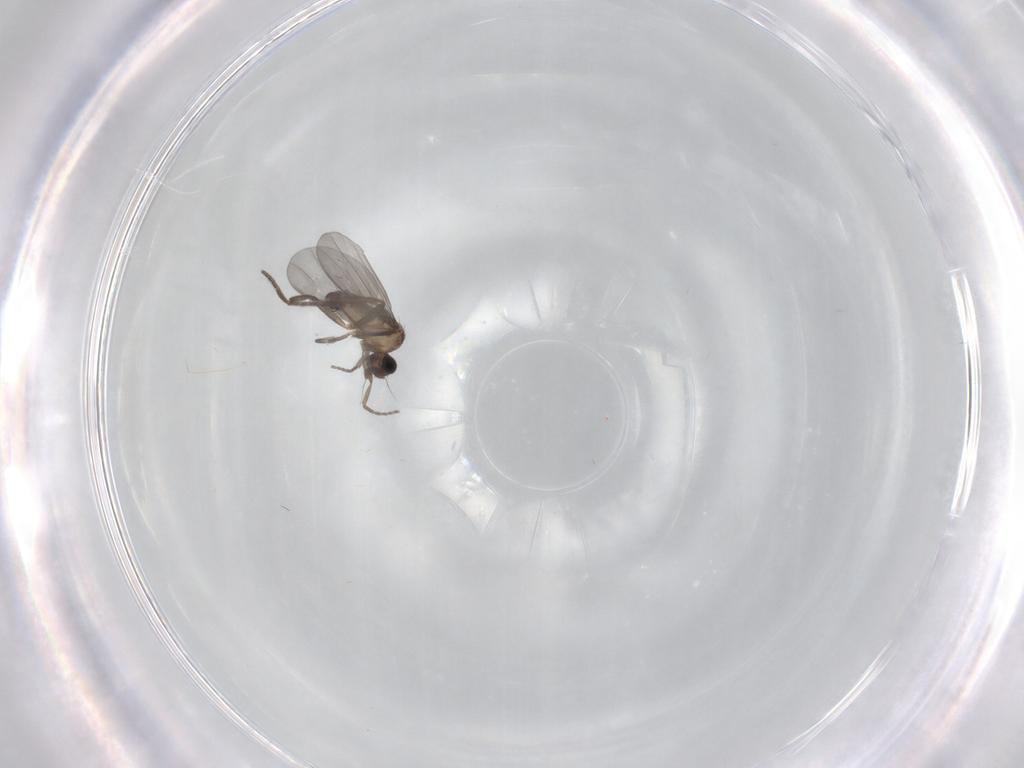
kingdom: Animalia
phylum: Arthropoda
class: Insecta
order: Diptera
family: Phoridae
